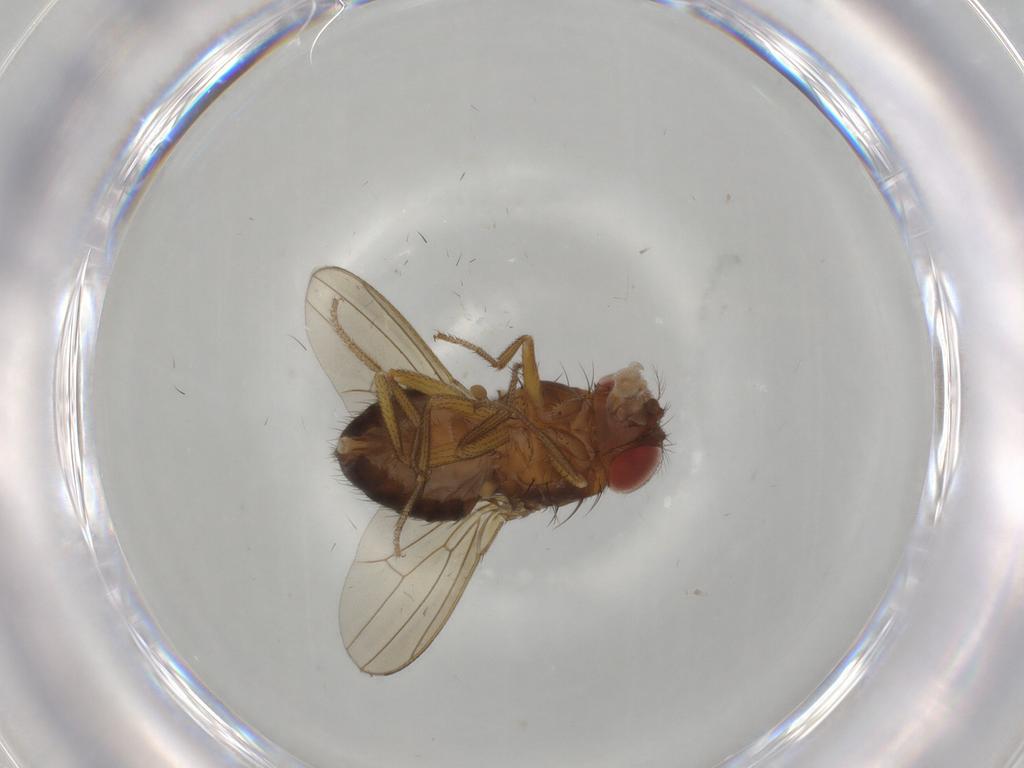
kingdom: Animalia
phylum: Arthropoda
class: Insecta
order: Diptera
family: Drosophilidae
